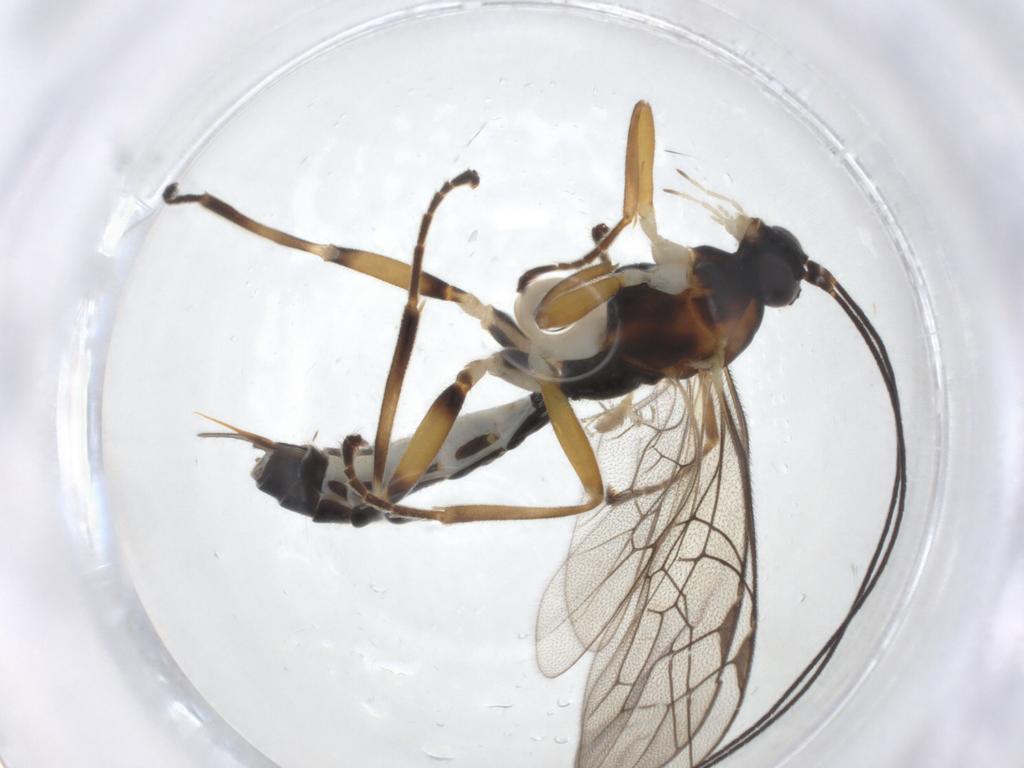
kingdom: Animalia
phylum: Arthropoda
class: Insecta
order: Hymenoptera
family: Ichneumonidae
